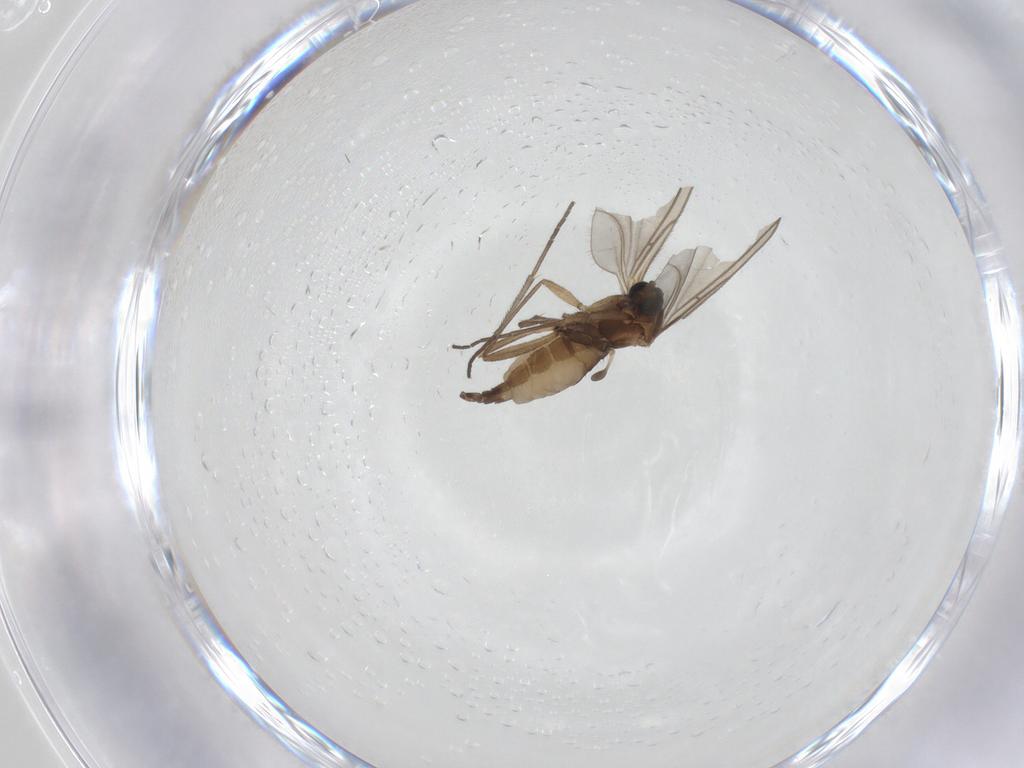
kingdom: Animalia
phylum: Arthropoda
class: Insecta
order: Diptera
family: Sciaridae
